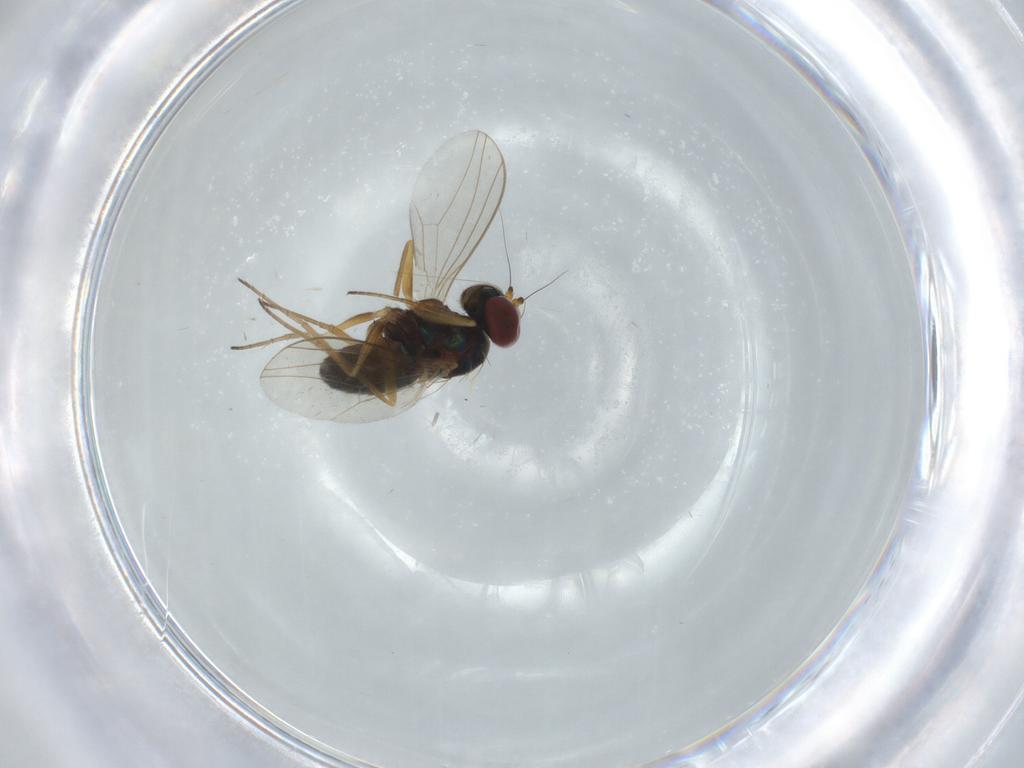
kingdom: Animalia
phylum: Arthropoda
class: Insecta
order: Diptera
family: Dolichopodidae
